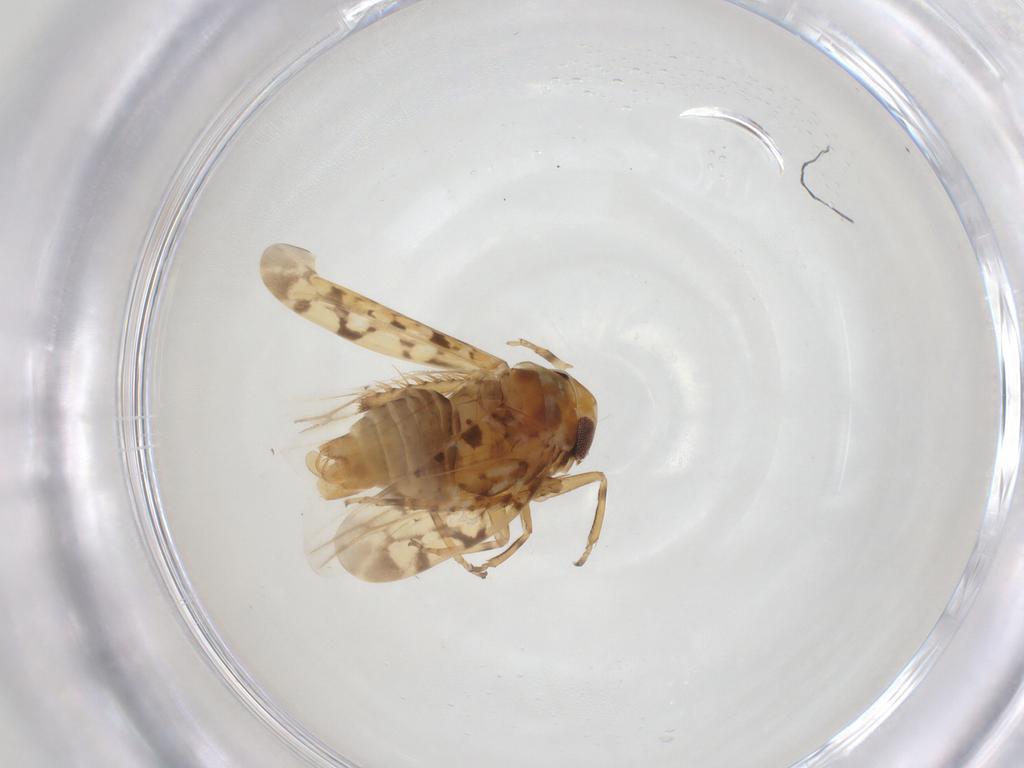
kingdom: Animalia
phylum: Arthropoda
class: Insecta
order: Hemiptera
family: Cicadellidae
